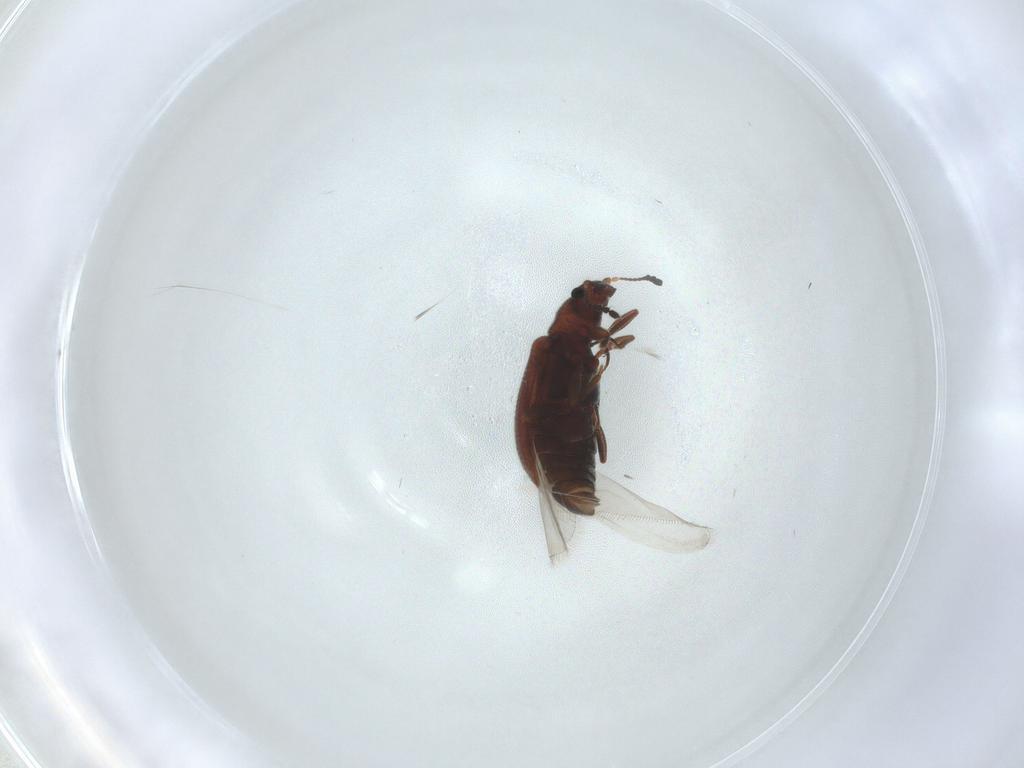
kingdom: Animalia
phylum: Arthropoda
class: Insecta
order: Coleoptera
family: Latridiidae
